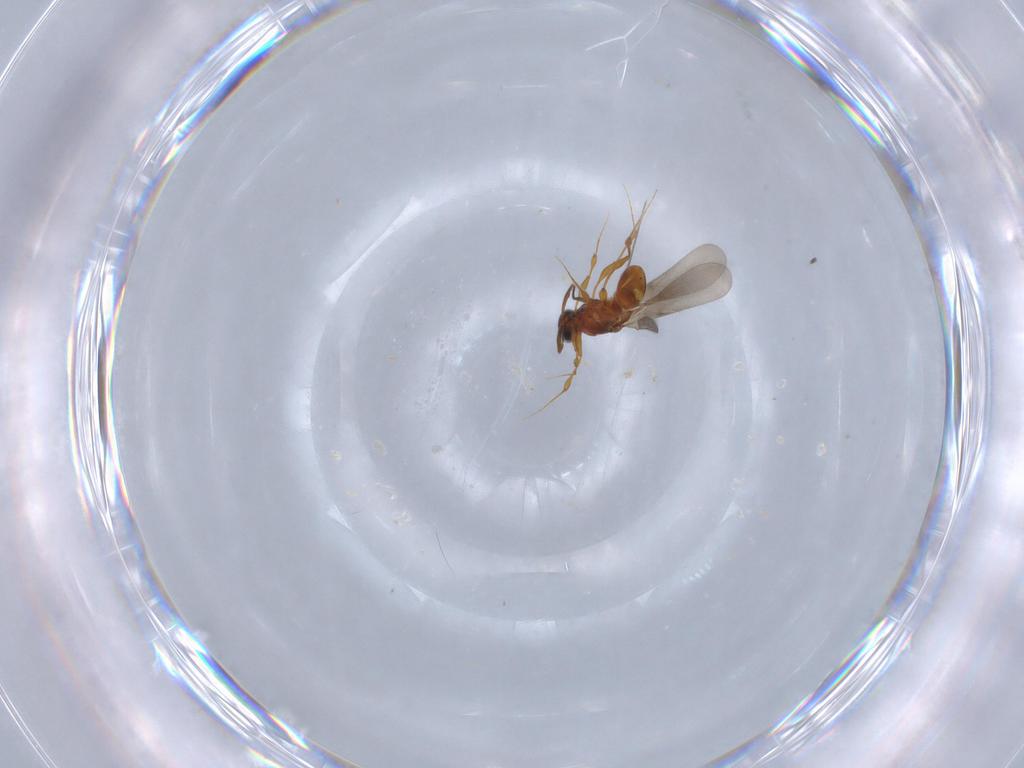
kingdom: Animalia
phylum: Arthropoda
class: Insecta
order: Hymenoptera
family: Platygastridae
